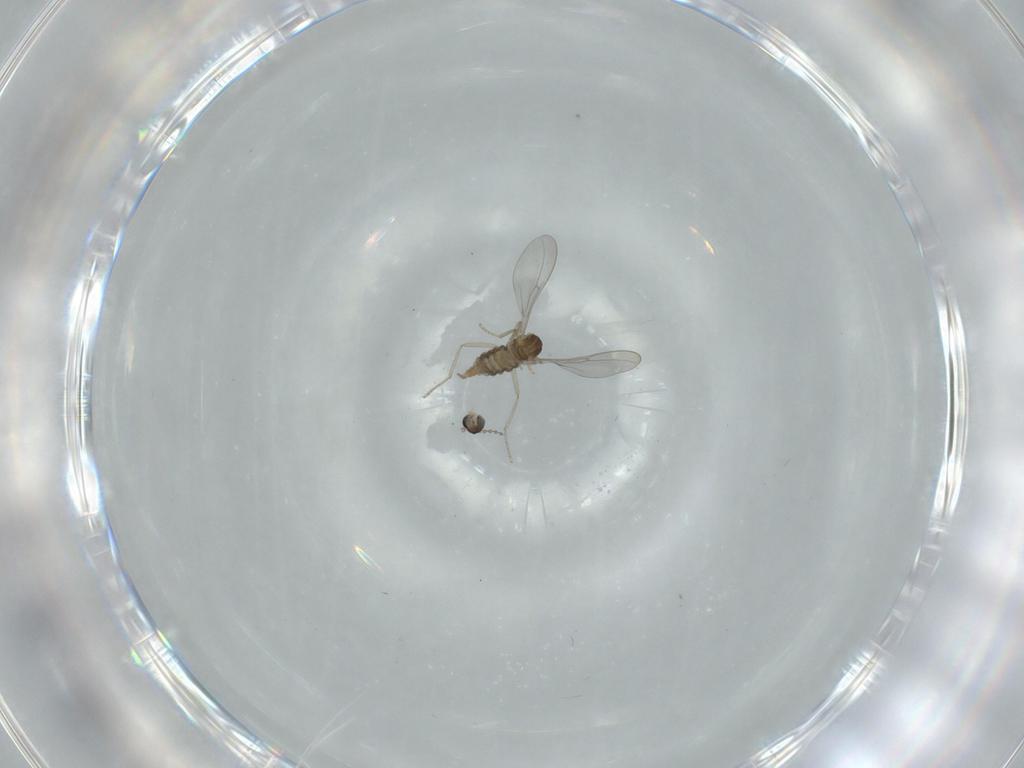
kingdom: Animalia
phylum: Arthropoda
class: Insecta
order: Diptera
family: Cecidomyiidae
